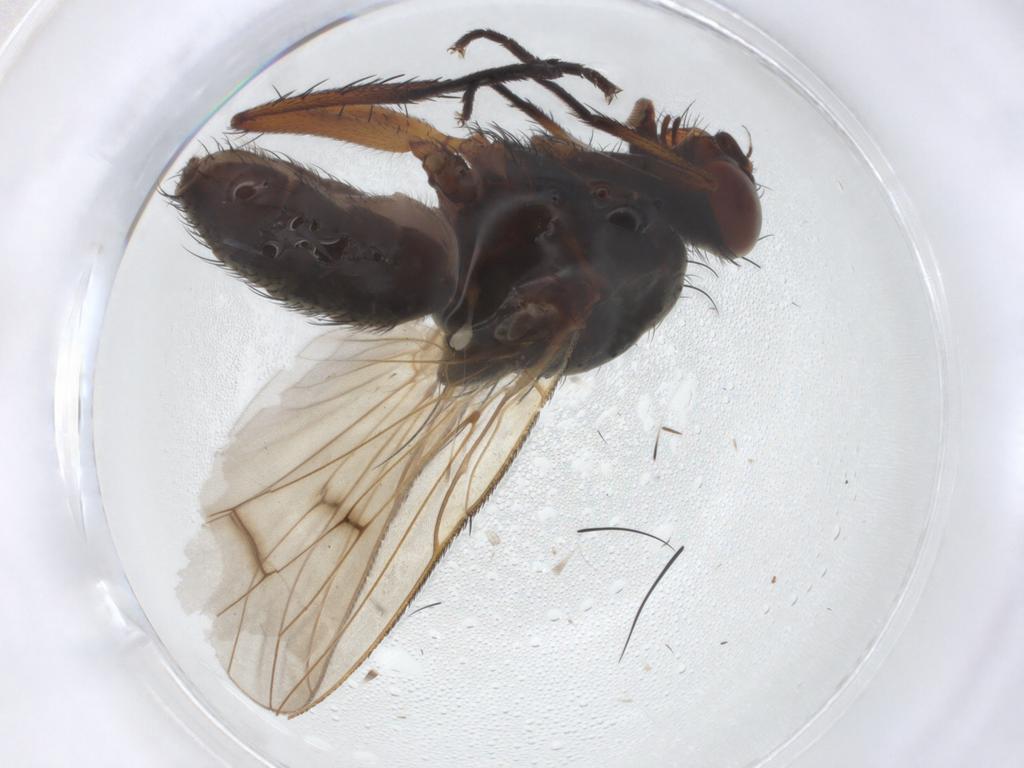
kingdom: Animalia
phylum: Arthropoda
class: Insecta
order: Diptera
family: Anthomyiidae
